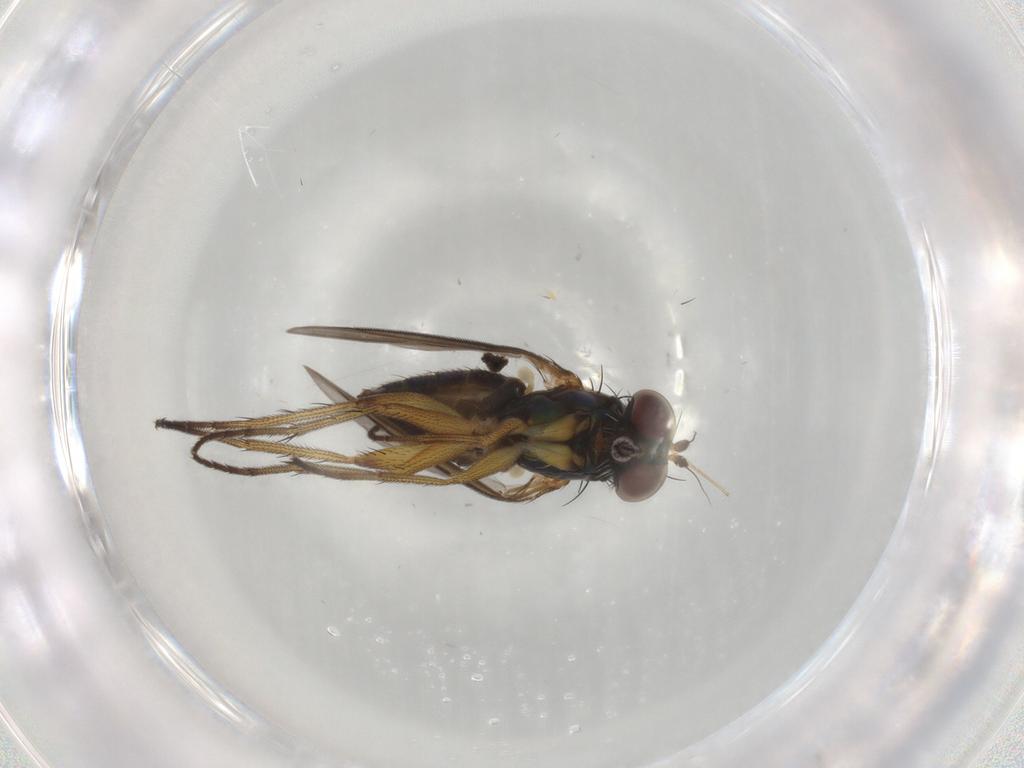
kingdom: Animalia
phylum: Arthropoda
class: Insecta
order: Diptera
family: Chironomidae
